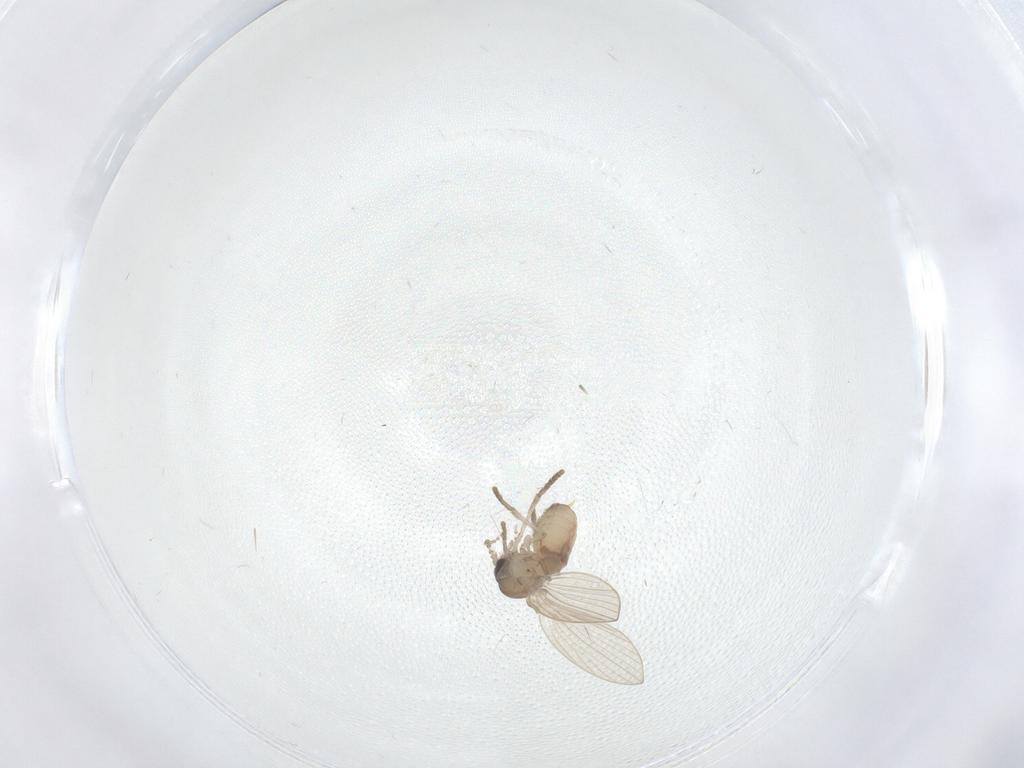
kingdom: Animalia
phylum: Arthropoda
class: Insecta
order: Diptera
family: Psychodidae
